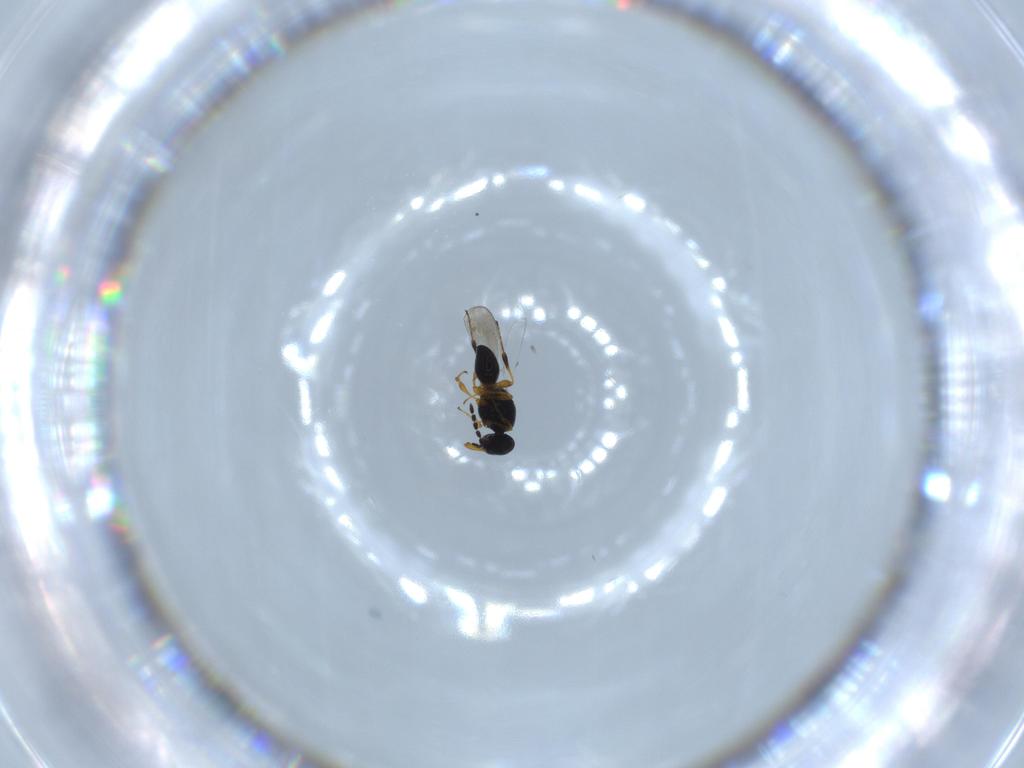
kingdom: Animalia
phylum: Arthropoda
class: Insecta
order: Hymenoptera
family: Platygastridae
